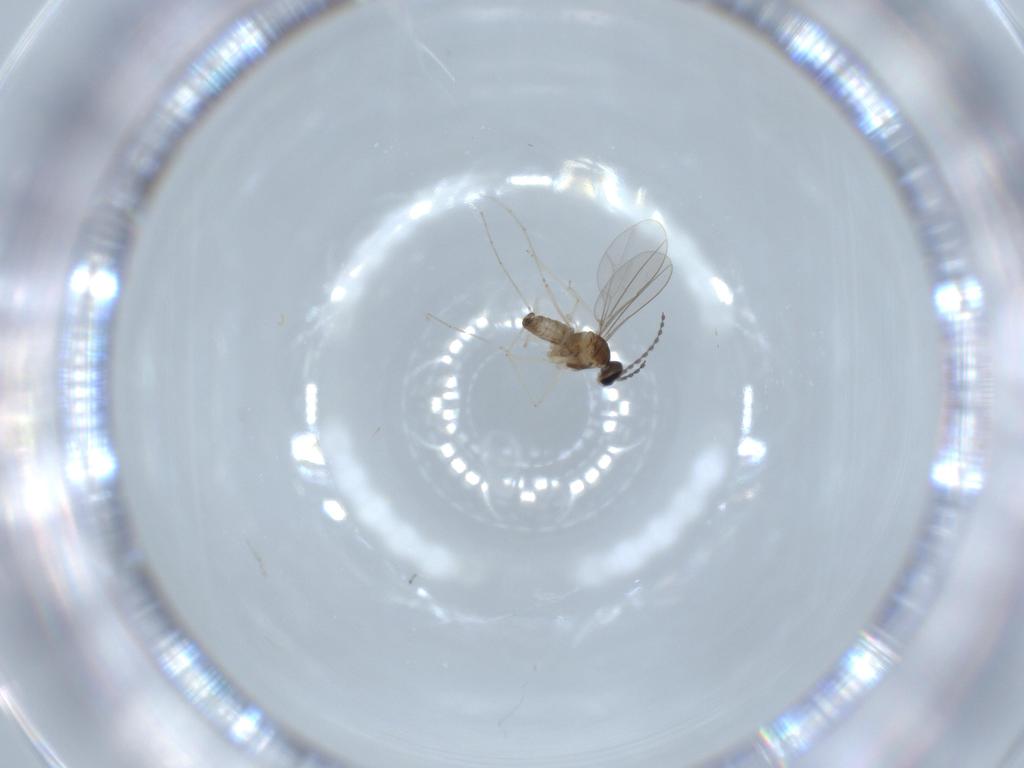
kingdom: Animalia
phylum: Arthropoda
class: Insecta
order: Diptera
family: Cecidomyiidae
